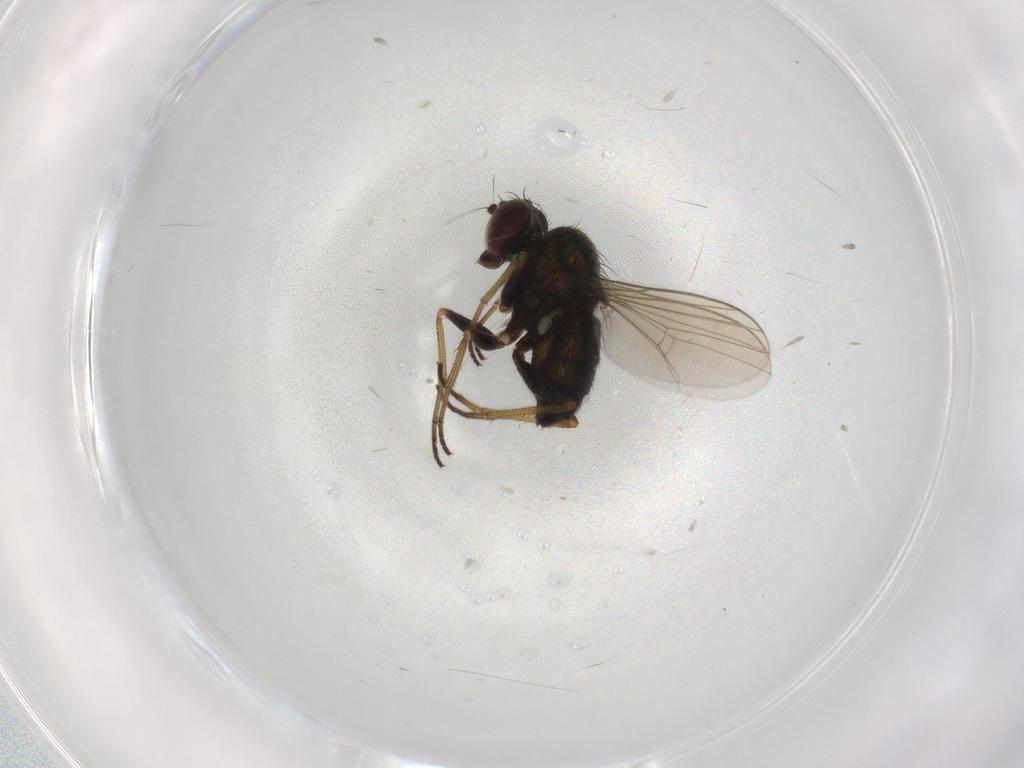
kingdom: Animalia
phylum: Arthropoda
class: Insecta
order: Diptera
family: Dolichopodidae
